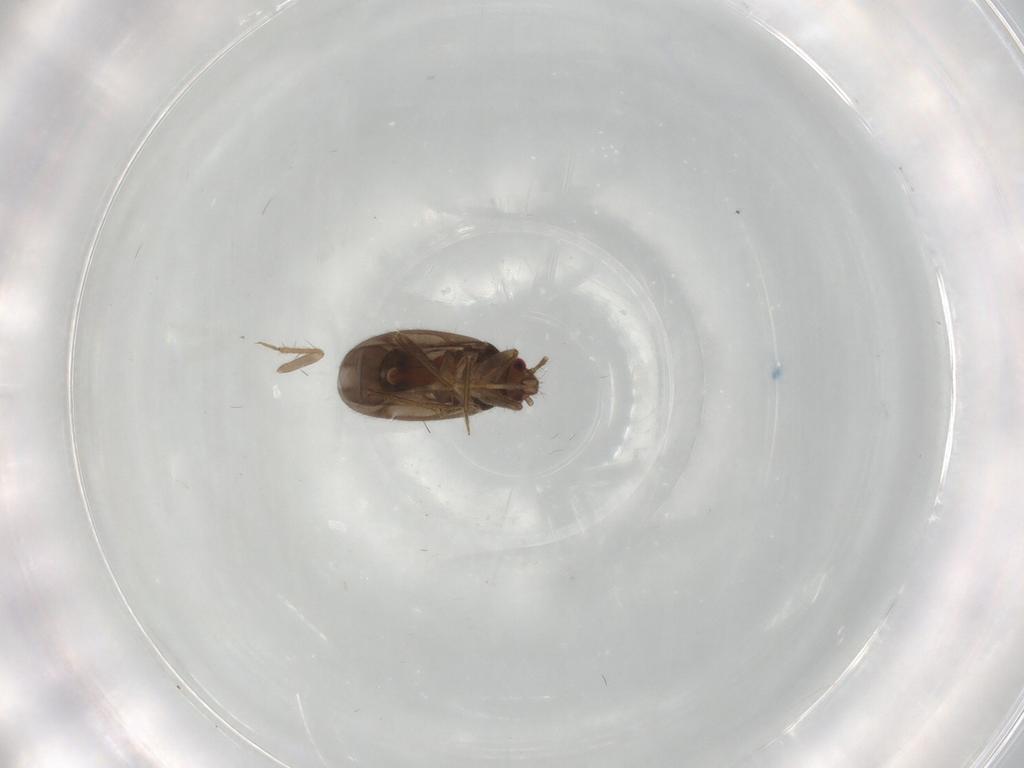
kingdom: Animalia
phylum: Arthropoda
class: Insecta
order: Hemiptera
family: Ceratocombidae
